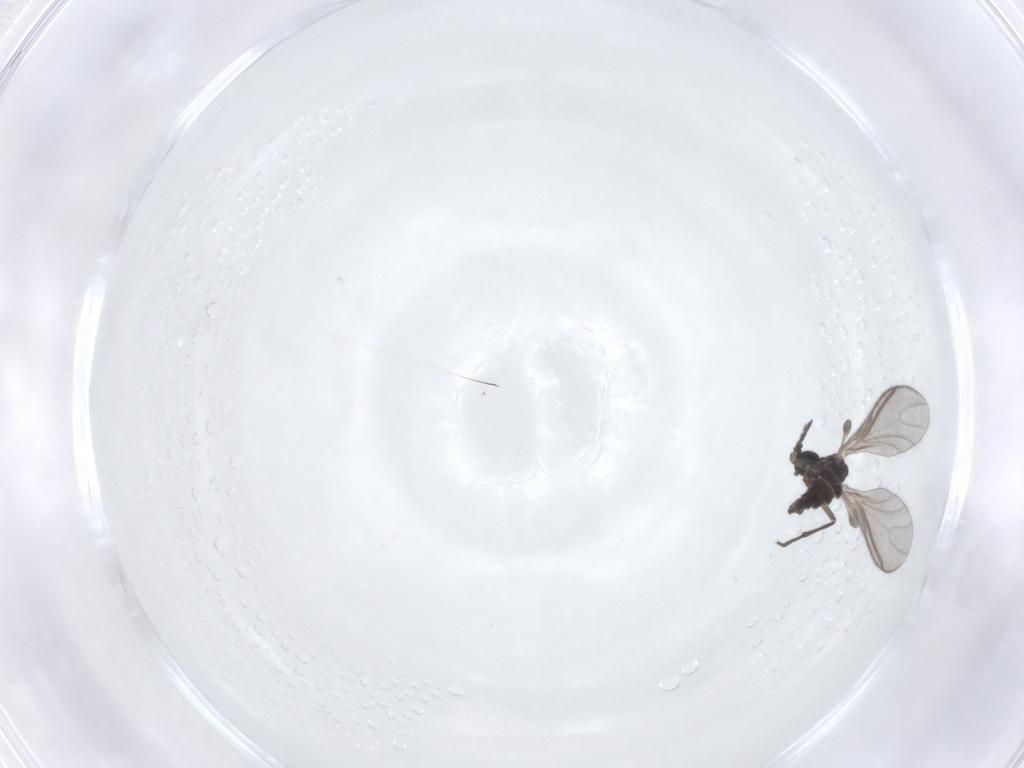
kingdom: Animalia
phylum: Arthropoda
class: Insecta
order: Diptera
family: Sciaridae
